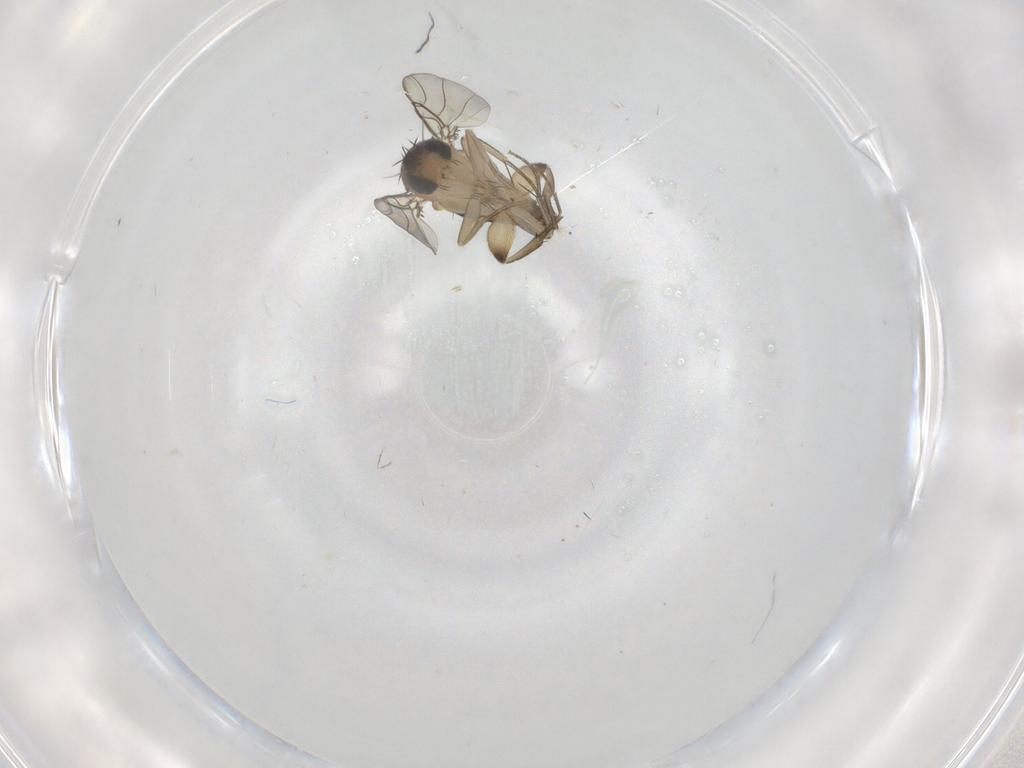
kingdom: Animalia
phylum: Arthropoda
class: Insecta
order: Diptera
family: Phoridae
